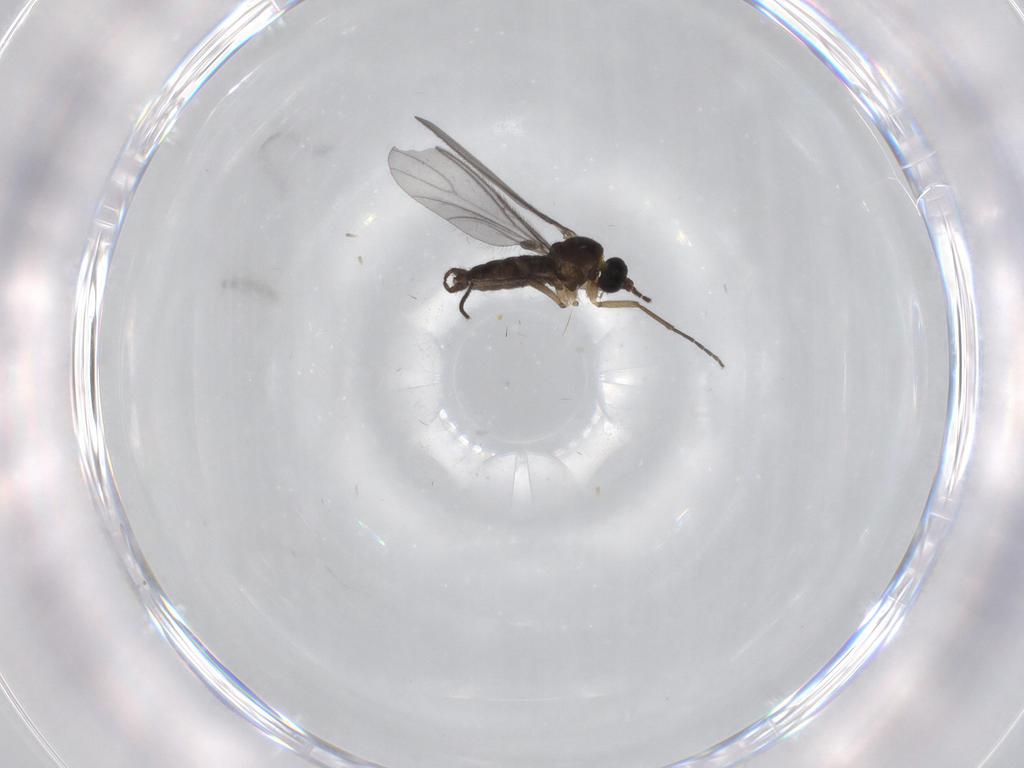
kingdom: Animalia
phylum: Arthropoda
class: Insecta
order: Diptera
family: Sciaridae
